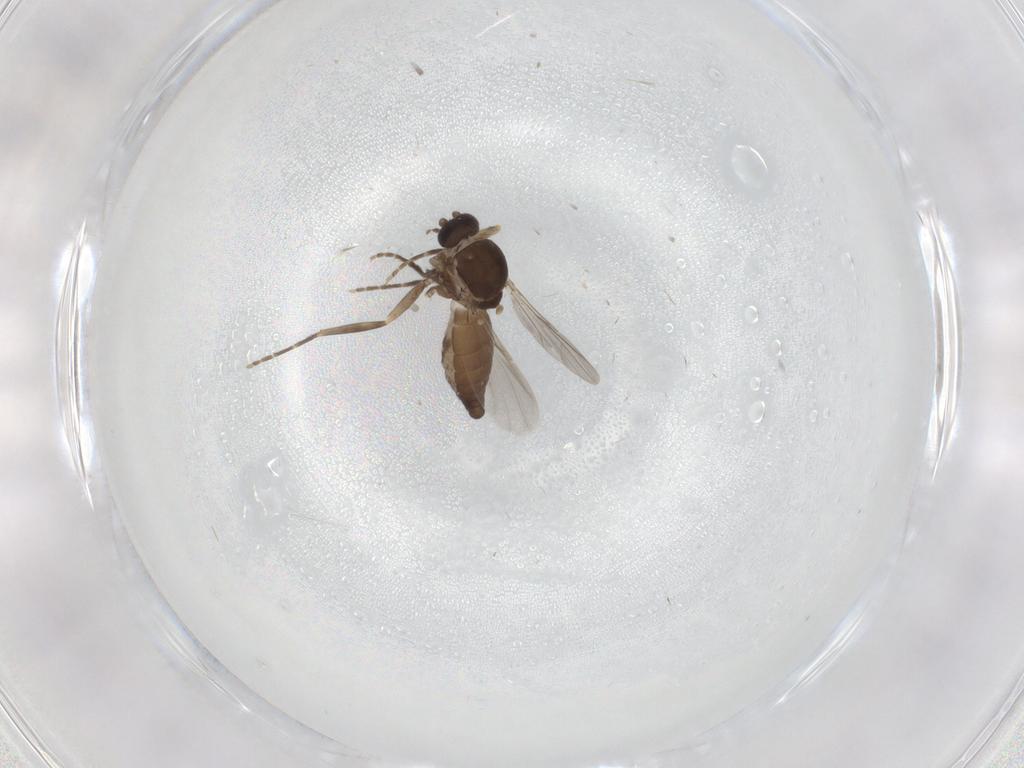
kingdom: Animalia
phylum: Arthropoda
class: Insecta
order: Diptera
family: Ceratopogonidae
